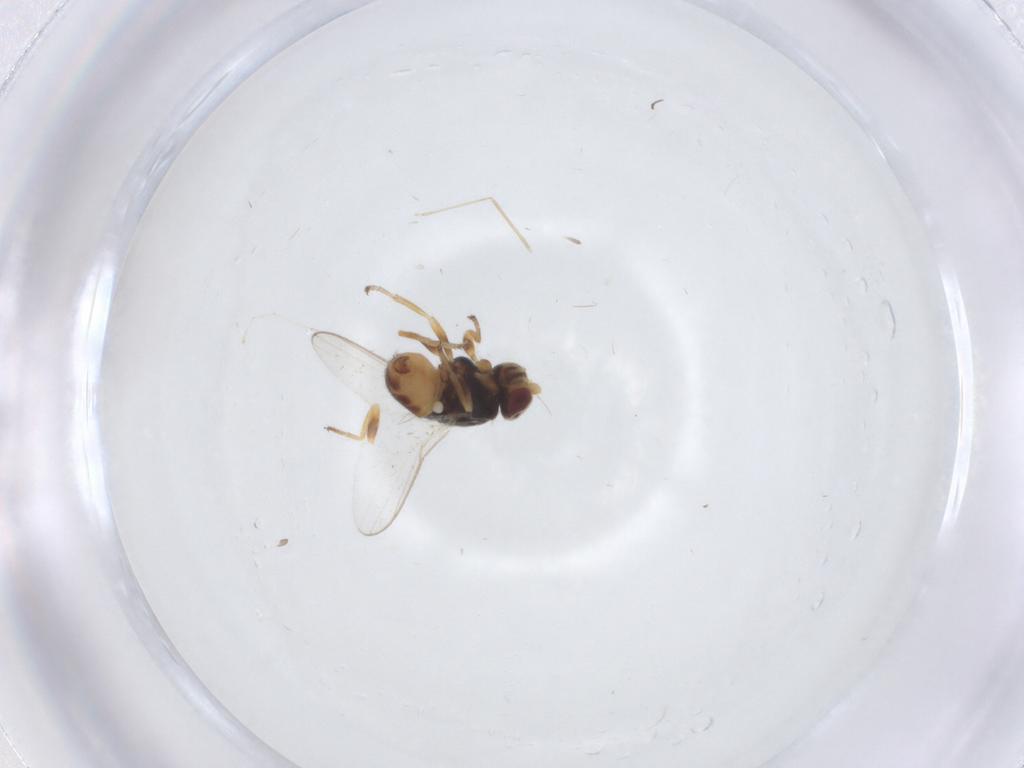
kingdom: Animalia
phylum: Arthropoda
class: Insecta
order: Diptera
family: Chloropidae
